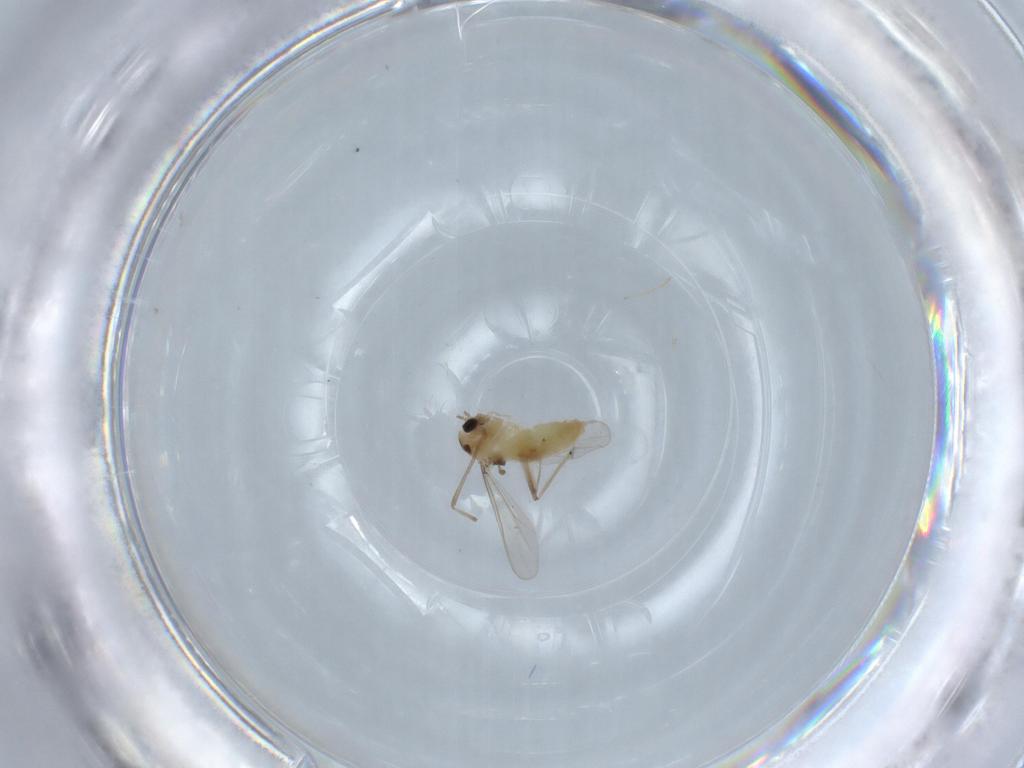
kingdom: Animalia
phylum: Arthropoda
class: Insecta
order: Diptera
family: Chironomidae
